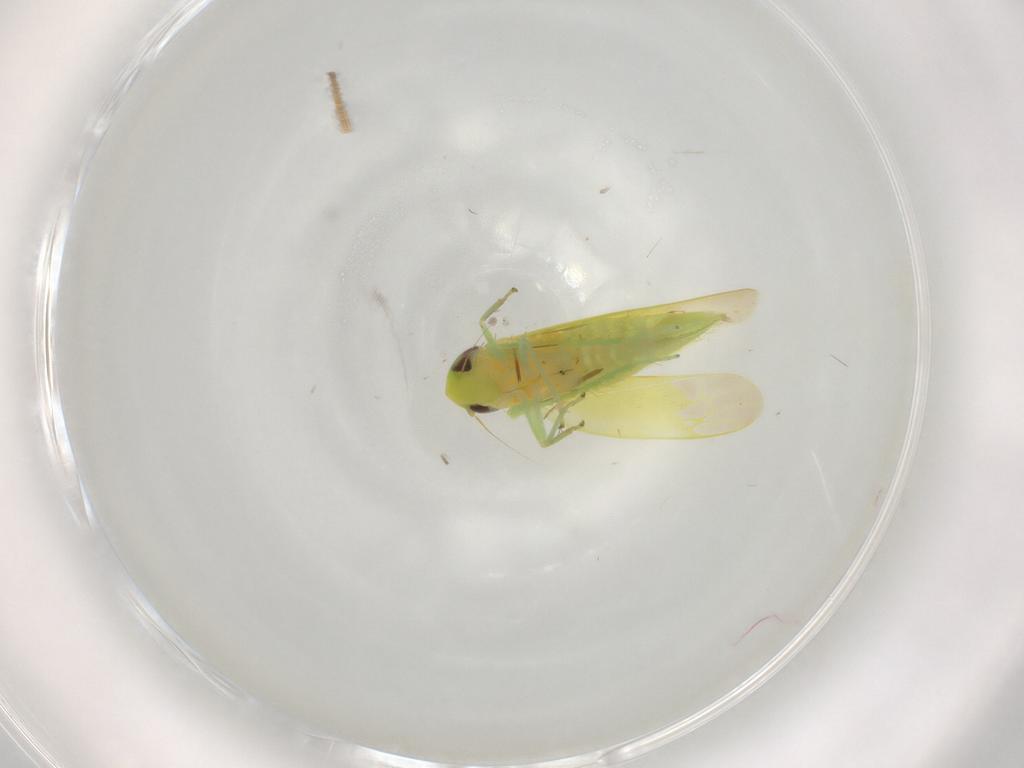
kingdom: Animalia
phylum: Arthropoda
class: Insecta
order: Hemiptera
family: Cicadellidae
